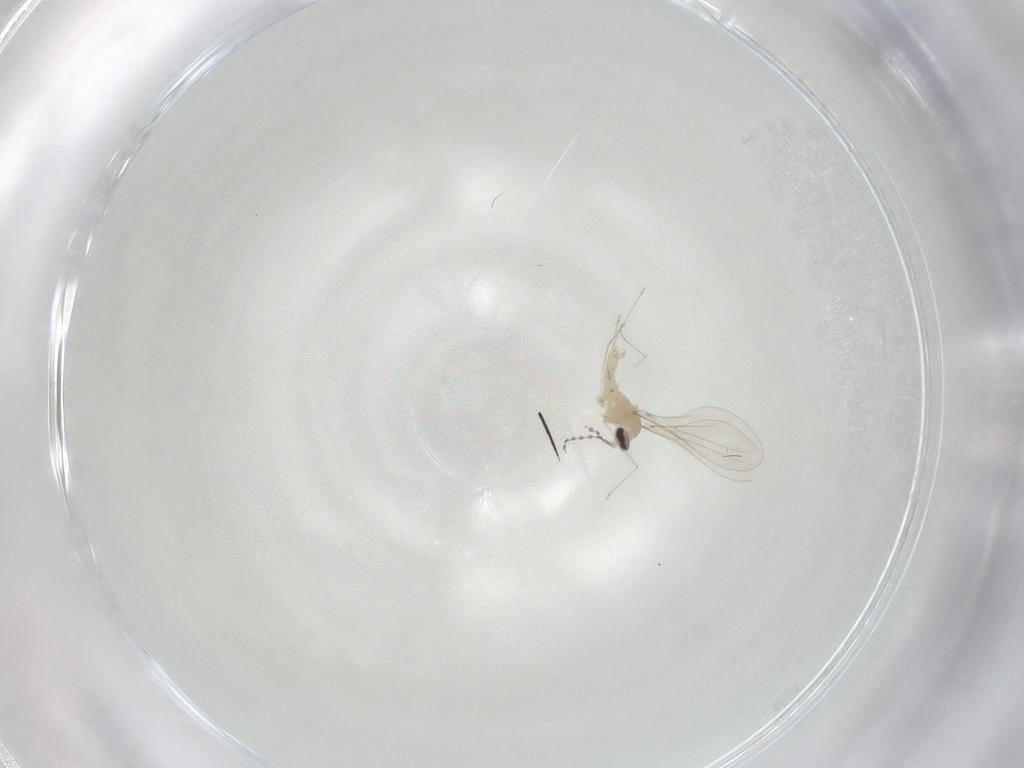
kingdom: Animalia
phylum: Arthropoda
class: Insecta
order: Diptera
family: Cecidomyiidae
